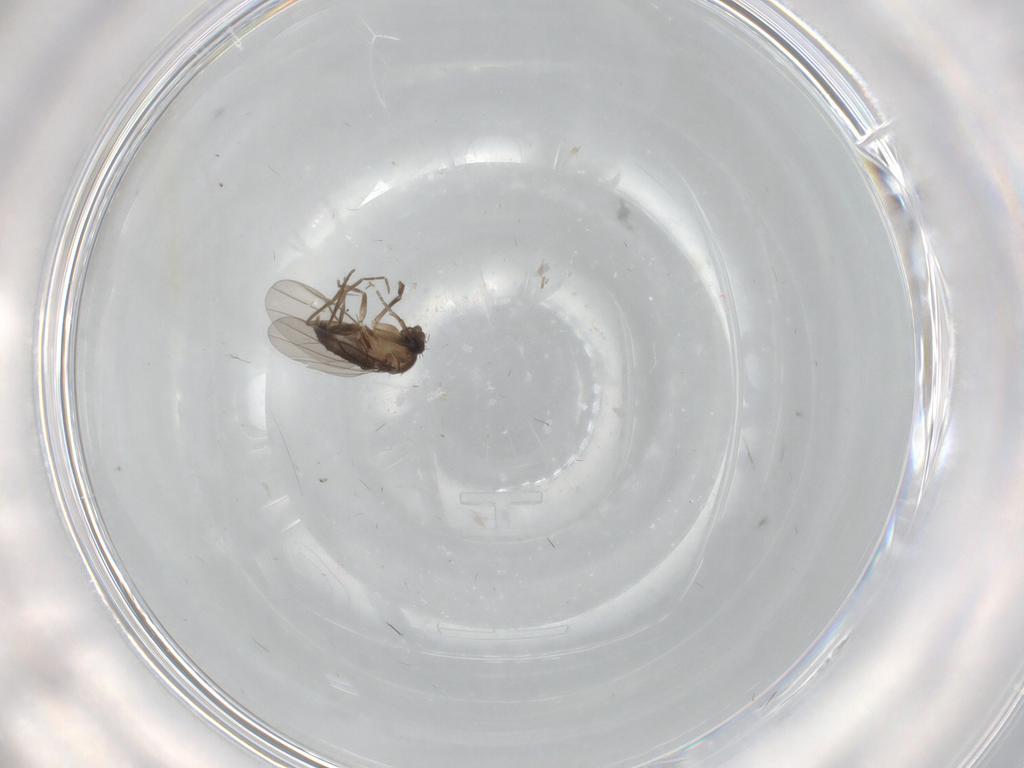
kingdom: Animalia
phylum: Arthropoda
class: Insecta
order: Diptera
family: Phoridae
